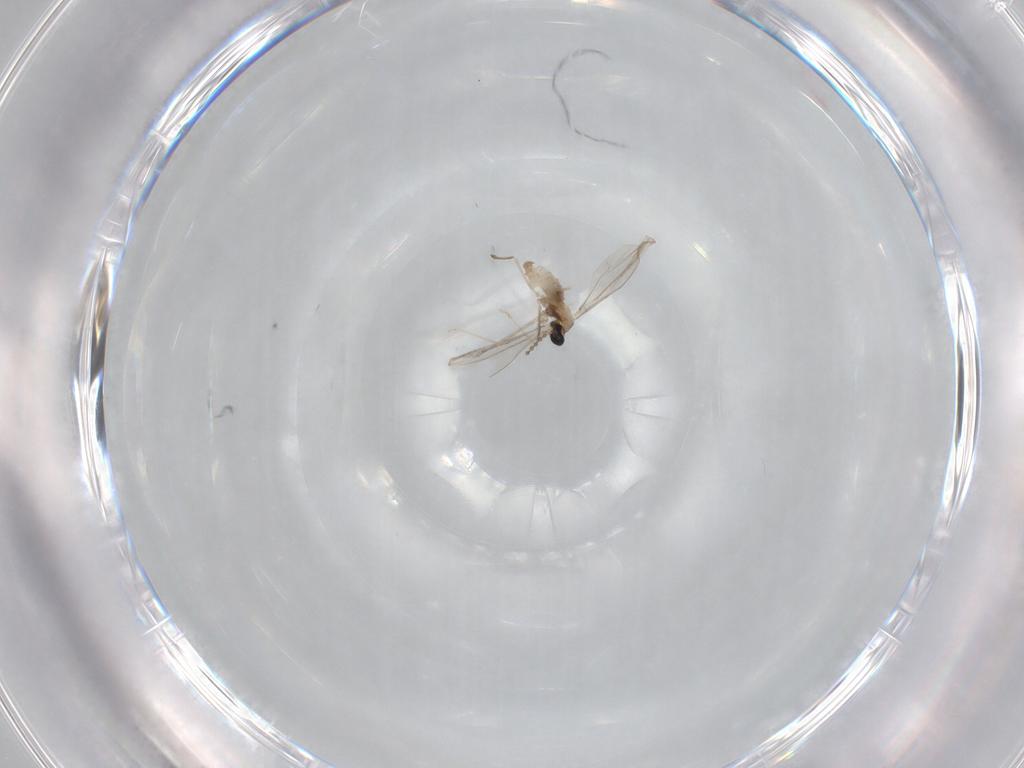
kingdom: Animalia
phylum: Arthropoda
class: Insecta
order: Diptera
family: Cecidomyiidae
